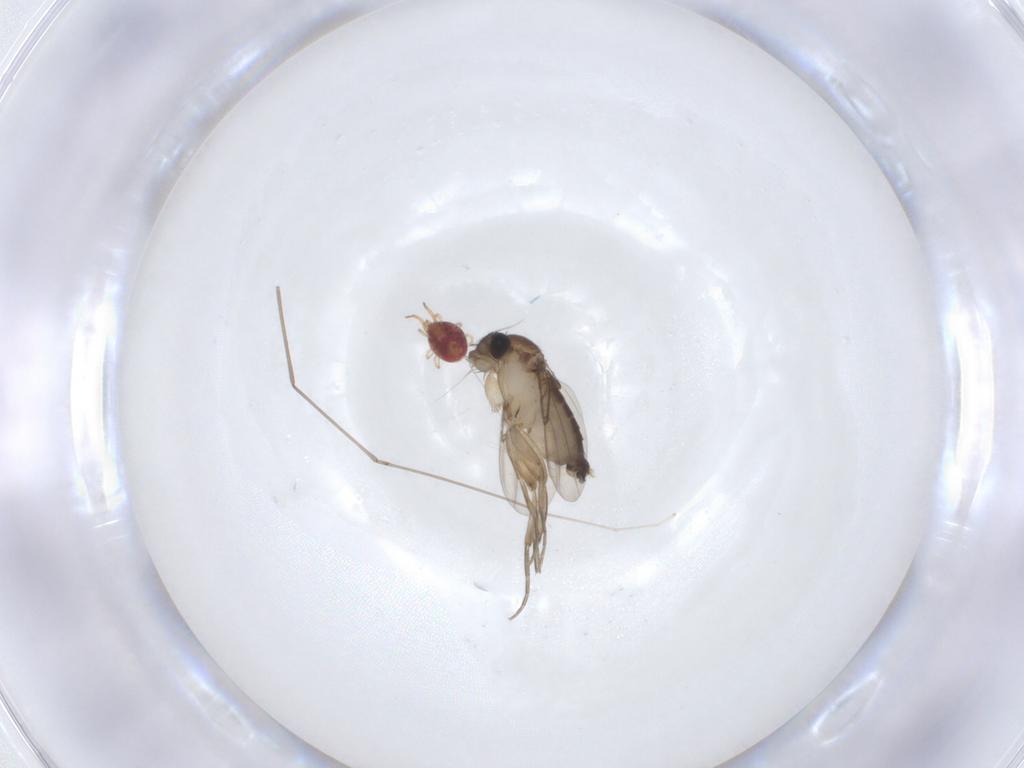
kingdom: Animalia
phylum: Arthropoda
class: Insecta
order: Diptera
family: Phoridae
